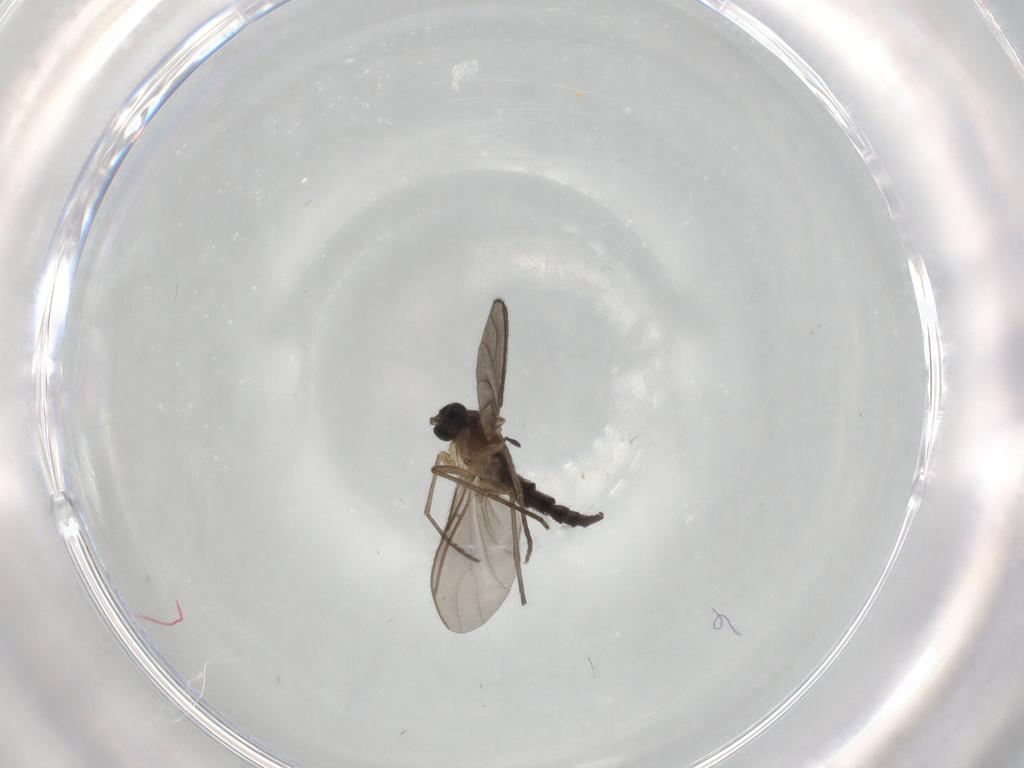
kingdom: Animalia
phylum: Arthropoda
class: Insecta
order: Diptera
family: Sciaridae
